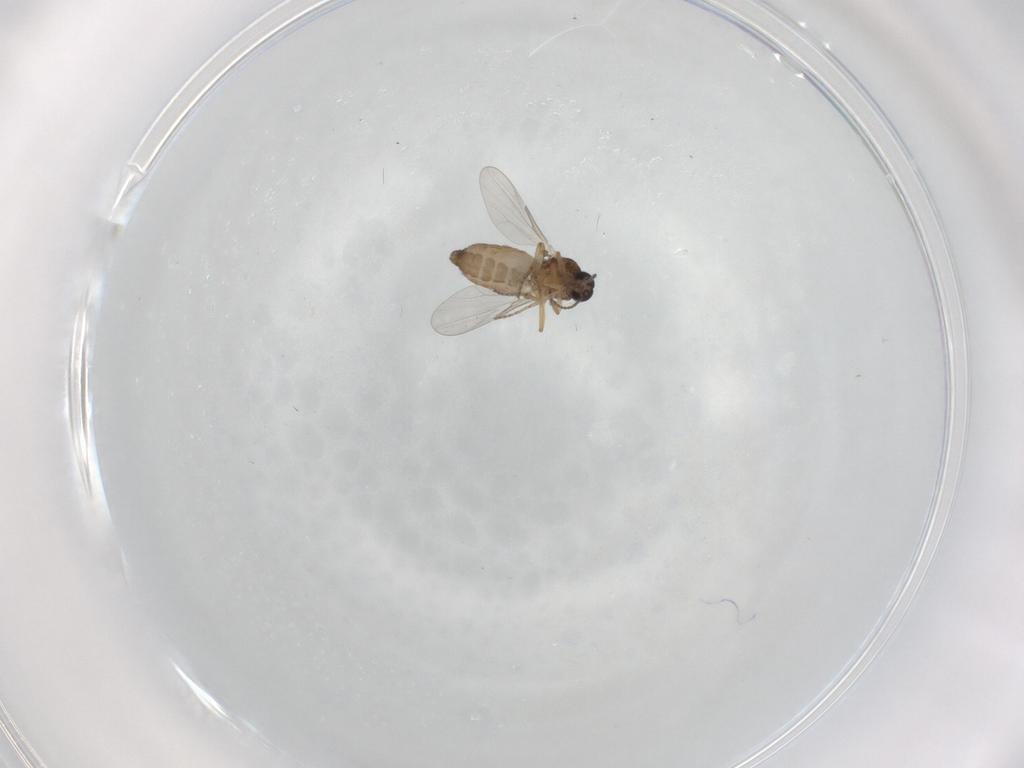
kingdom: Animalia
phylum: Arthropoda
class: Insecta
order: Diptera
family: Ceratopogonidae
